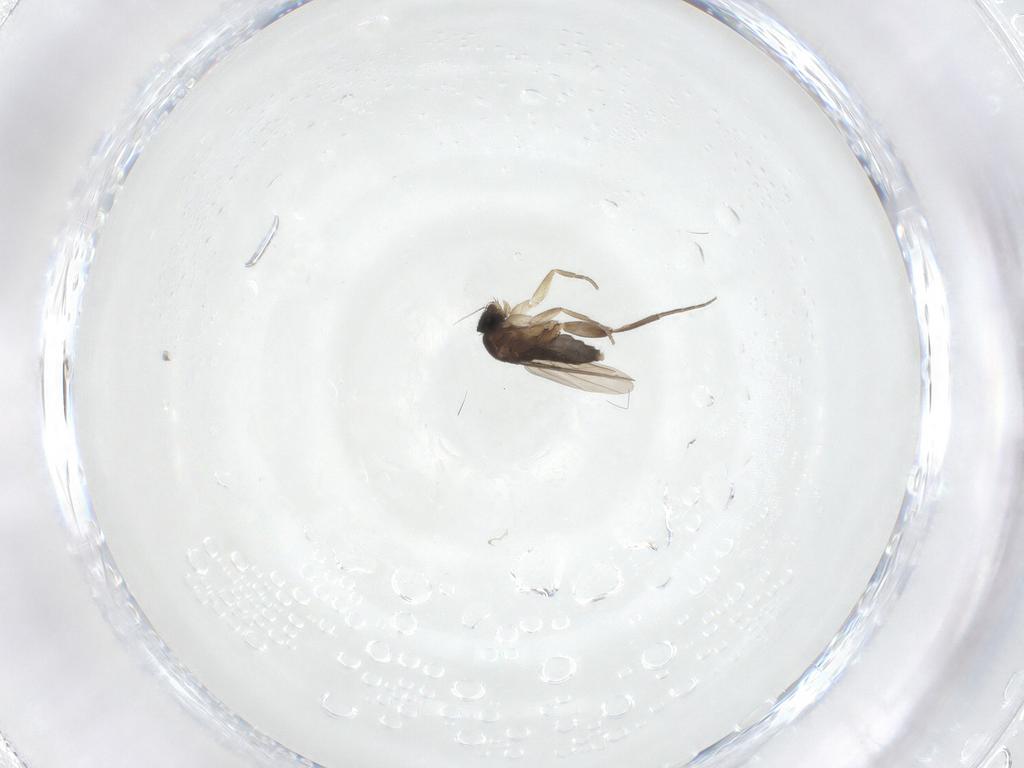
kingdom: Animalia
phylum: Arthropoda
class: Insecta
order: Diptera
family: Phoridae
